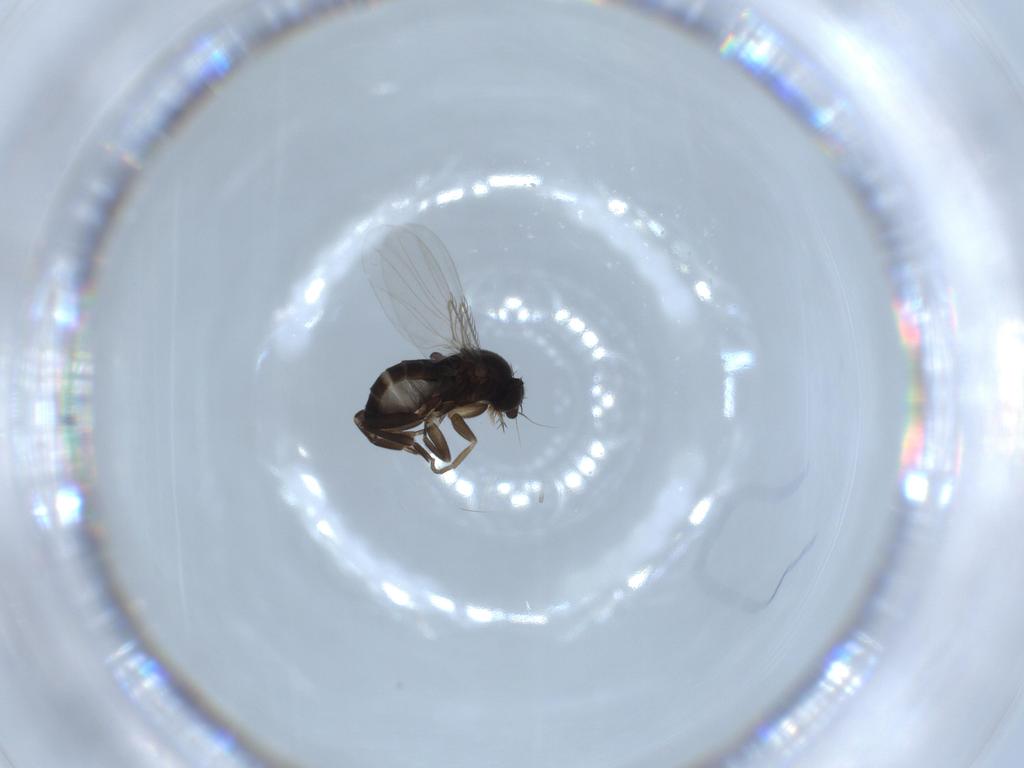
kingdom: Animalia
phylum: Arthropoda
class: Insecta
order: Diptera
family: Phoridae
